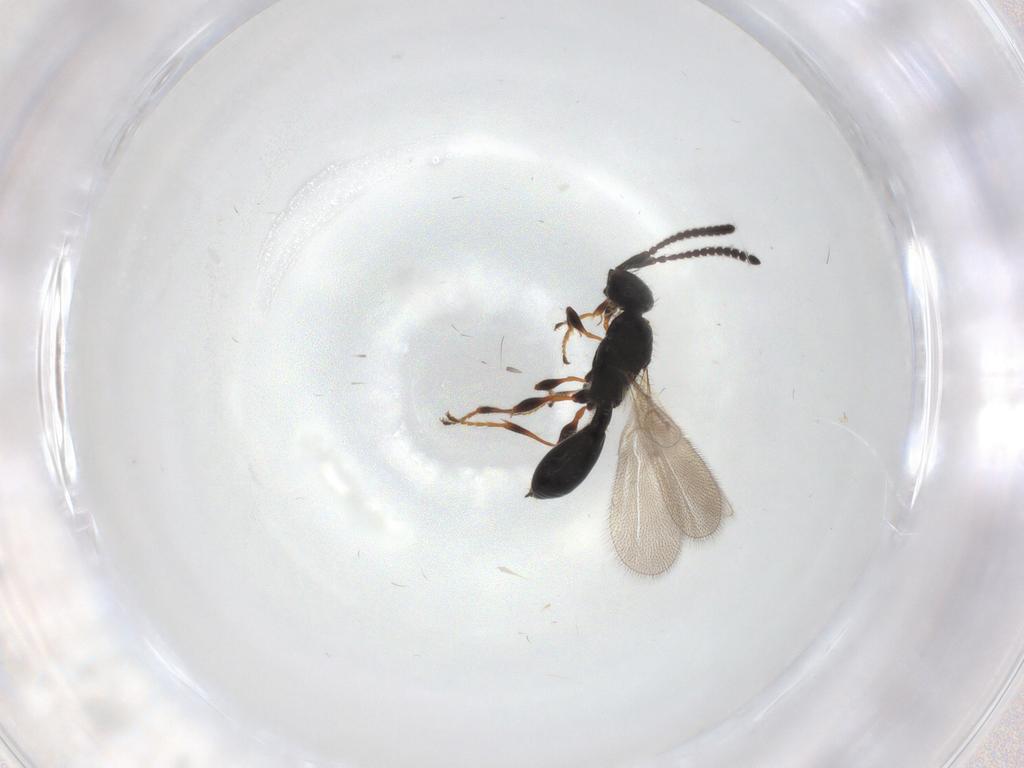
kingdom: Animalia
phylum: Arthropoda
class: Insecta
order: Hymenoptera
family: Diapriidae
